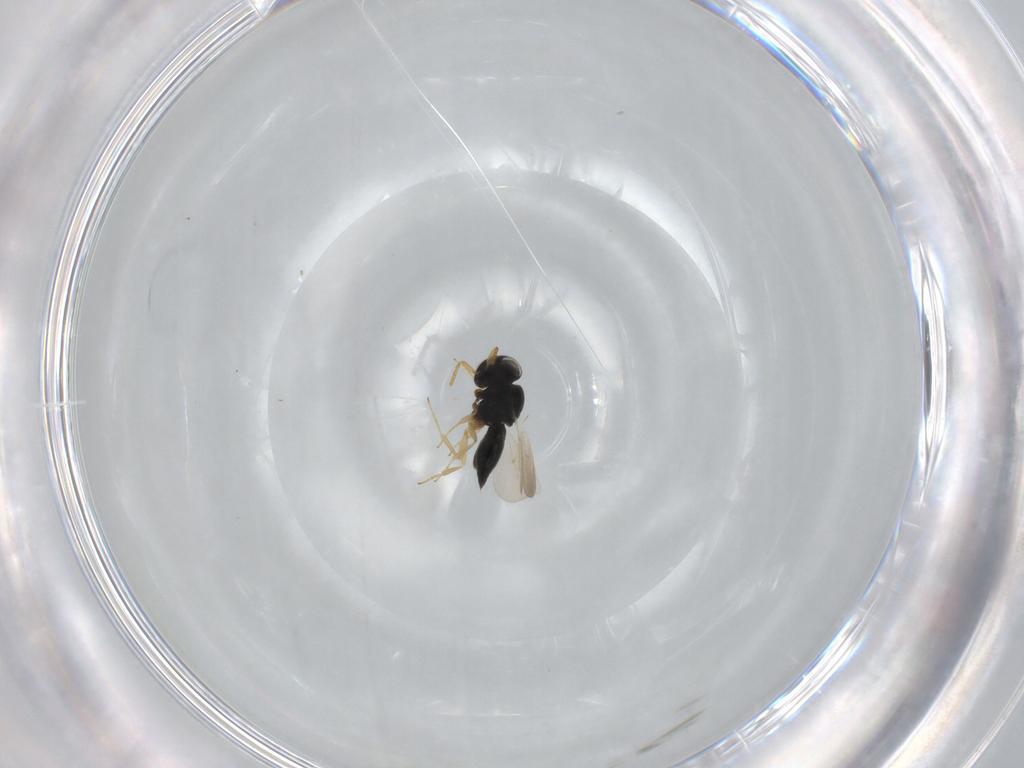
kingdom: Animalia
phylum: Arthropoda
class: Insecta
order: Hymenoptera
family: Scelionidae
